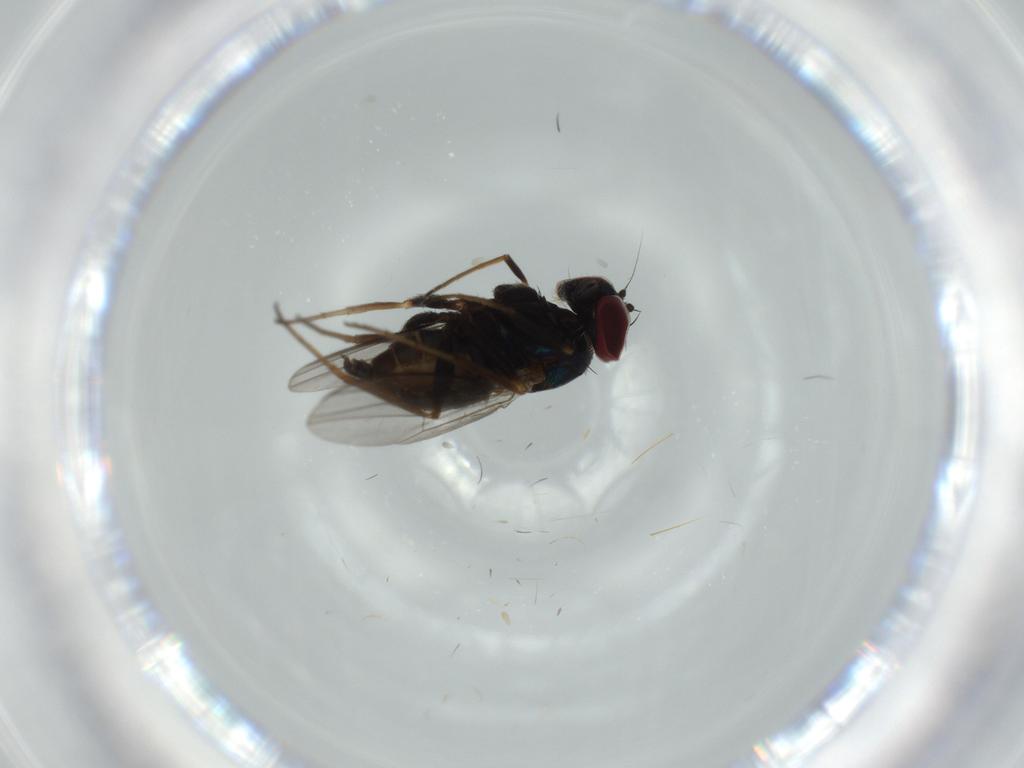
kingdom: Animalia
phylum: Arthropoda
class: Insecta
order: Diptera
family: Dolichopodidae
